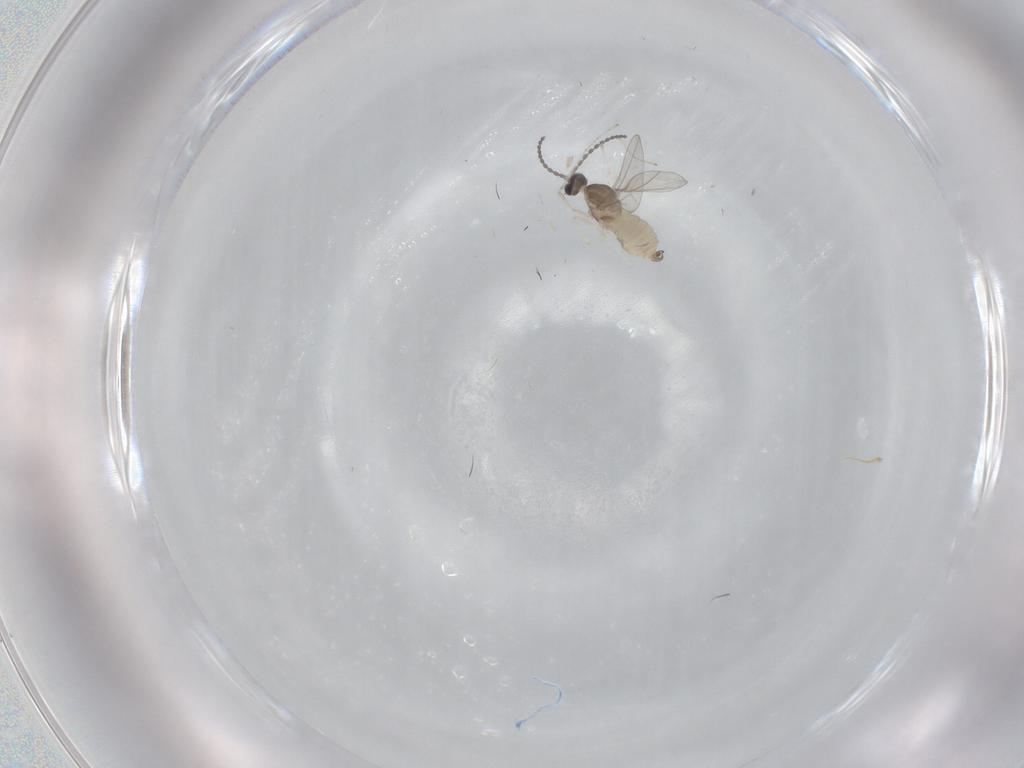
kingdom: Animalia
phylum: Arthropoda
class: Insecta
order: Diptera
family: Cecidomyiidae
